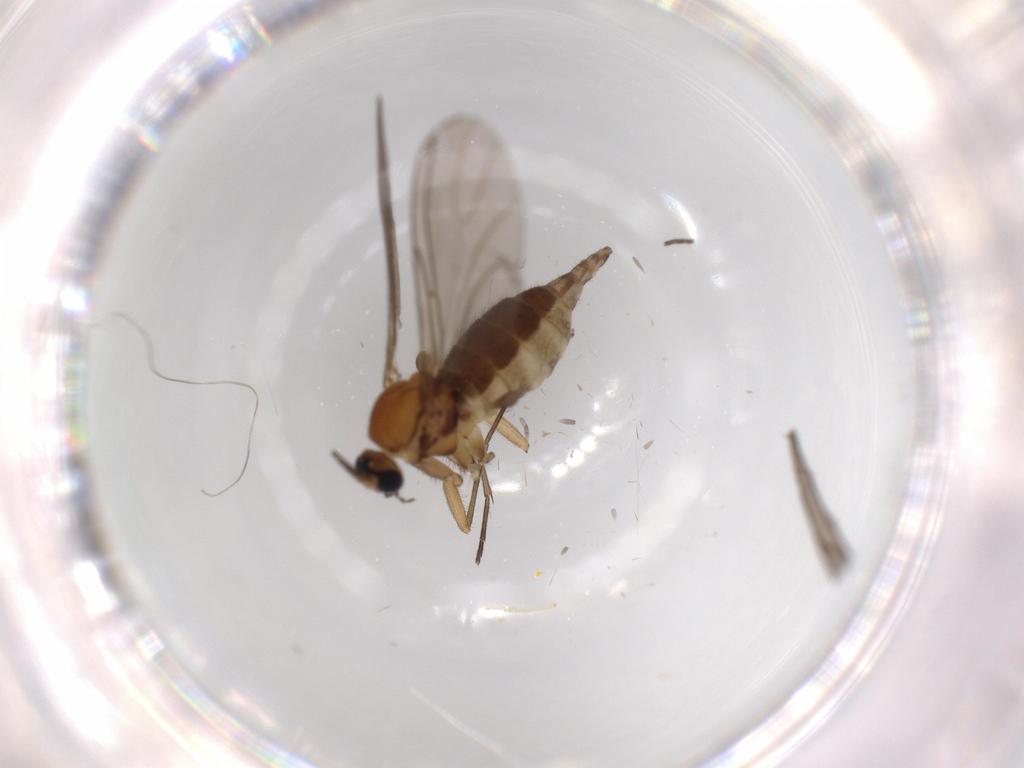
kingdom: Animalia
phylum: Arthropoda
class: Insecta
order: Diptera
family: Sciaridae
